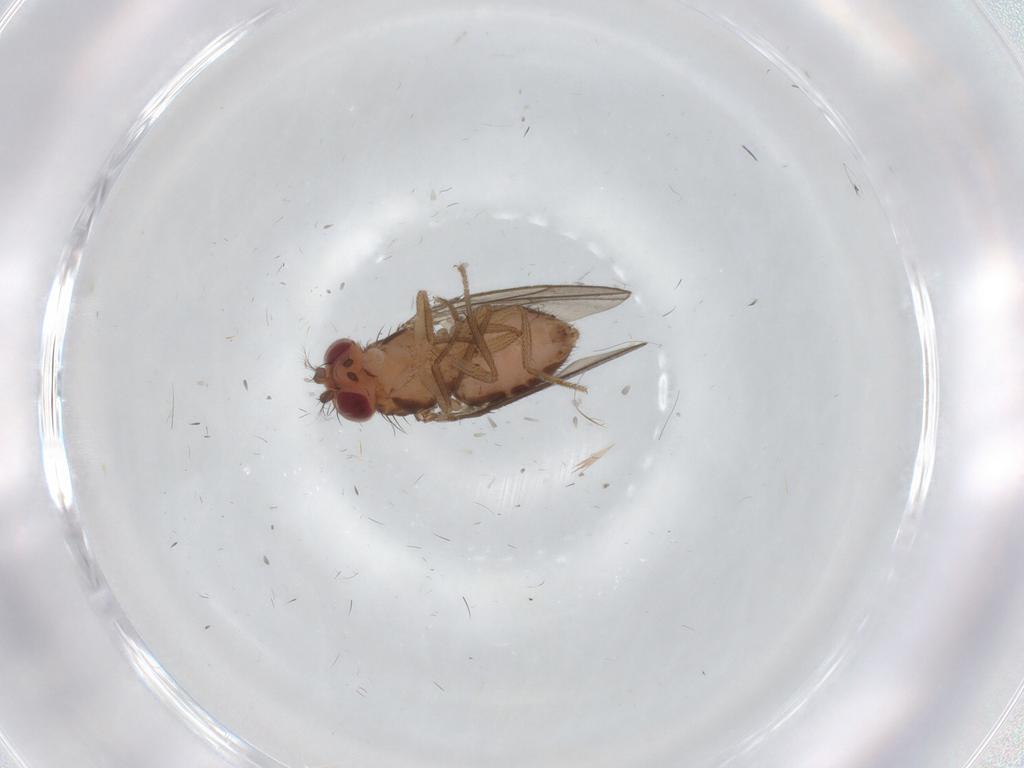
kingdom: Animalia
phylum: Arthropoda
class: Insecta
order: Diptera
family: Drosophilidae
